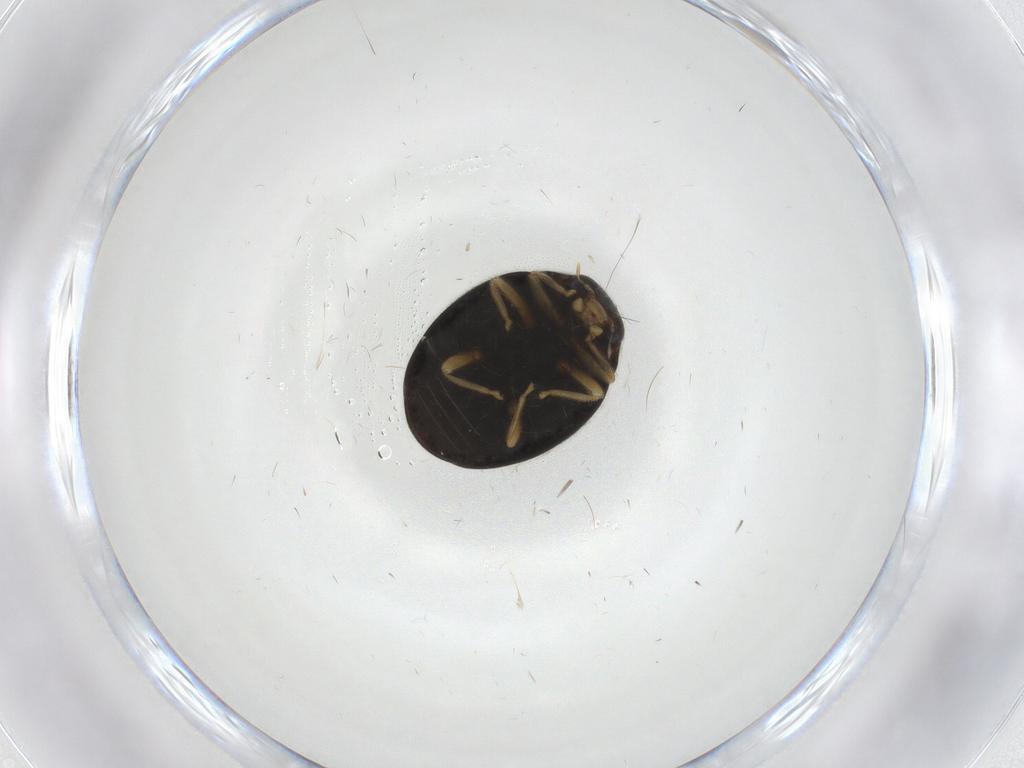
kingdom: Animalia
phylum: Arthropoda
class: Insecta
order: Coleoptera
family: Coccinellidae
